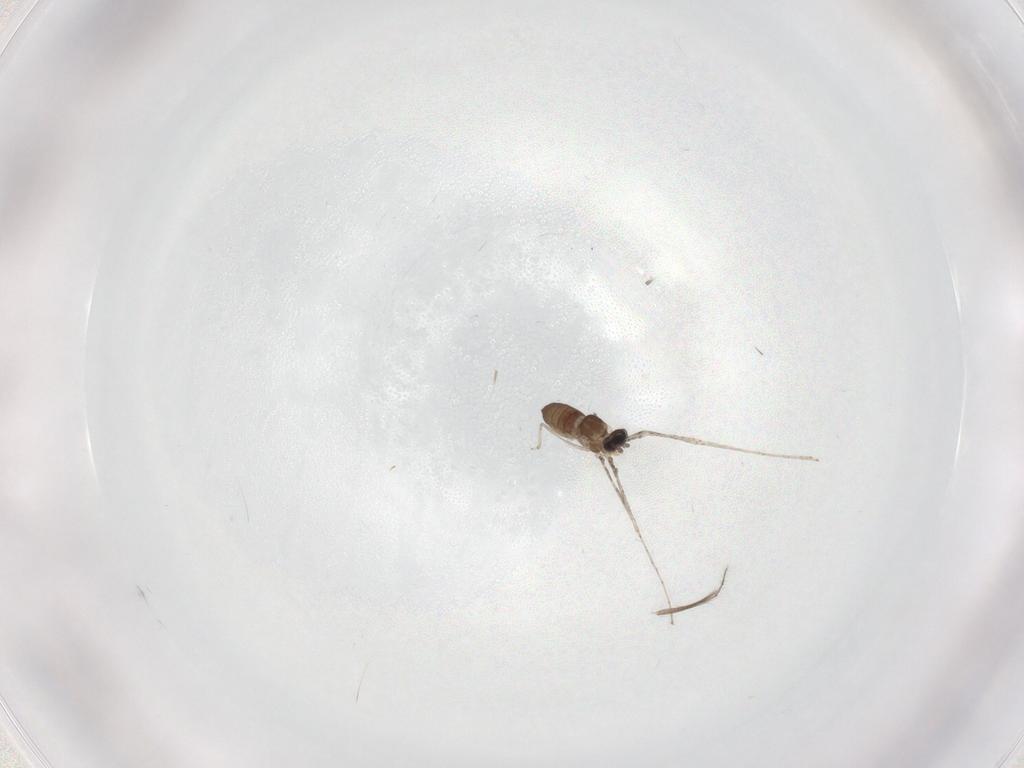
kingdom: Animalia
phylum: Arthropoda
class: Insecta
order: Diptera
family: Cecidomyiidae
